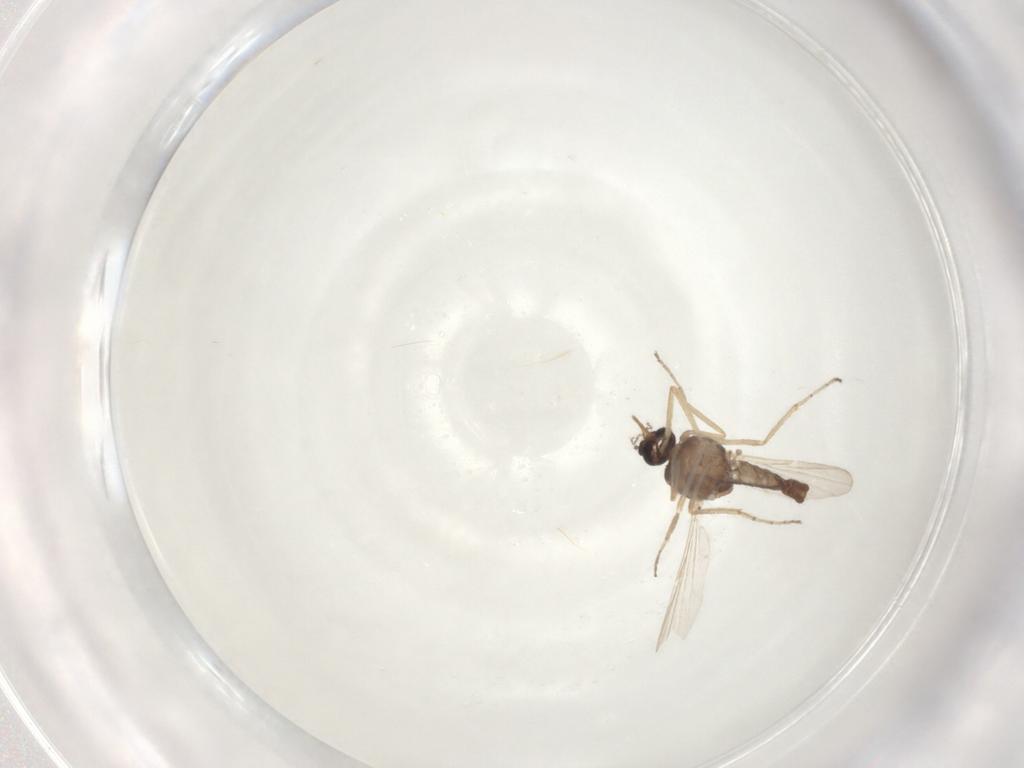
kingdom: Animalia
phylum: Arthropoda
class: Insecta
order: Diptera
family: Ceratopogonidae
